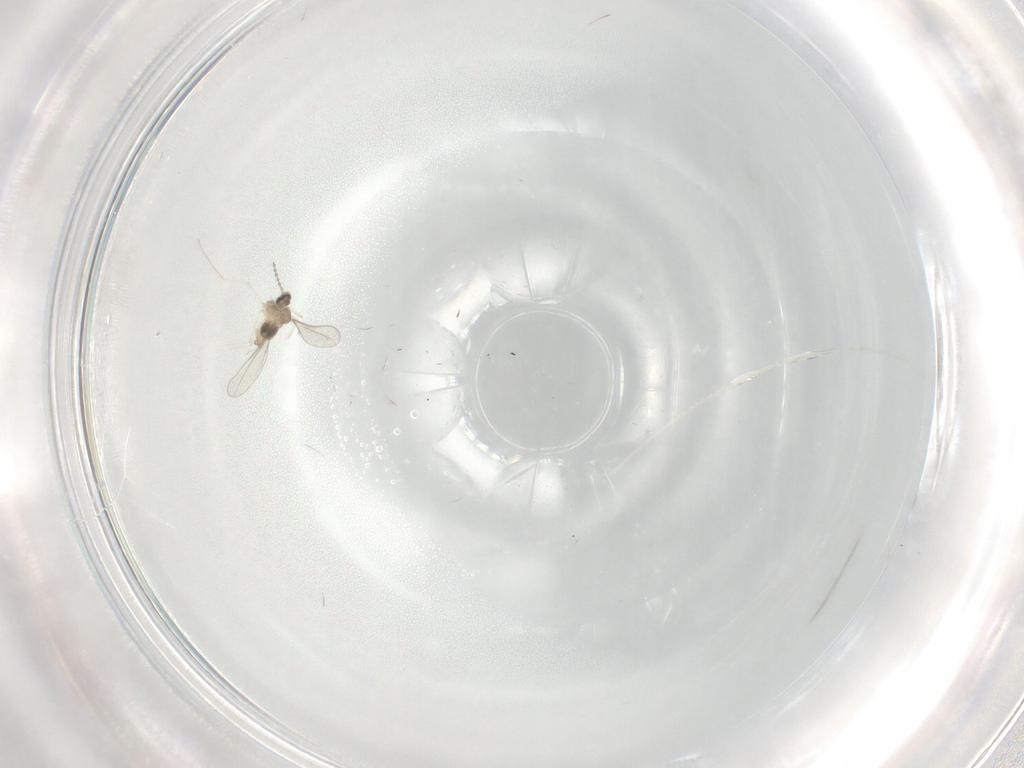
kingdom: Animalia
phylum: Arthropoda
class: Insecta
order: Diptera
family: Cecidomyiidae
